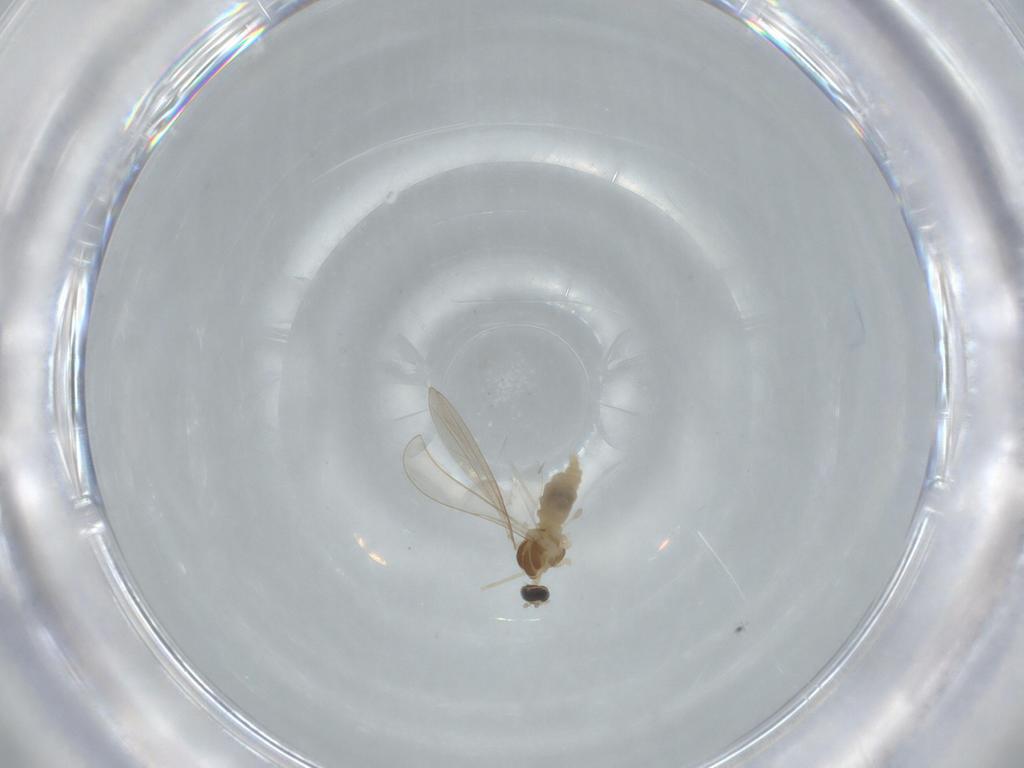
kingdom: Animalia
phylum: Arthropoda
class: Insecta
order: Diptera
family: Cecidomyiidae
